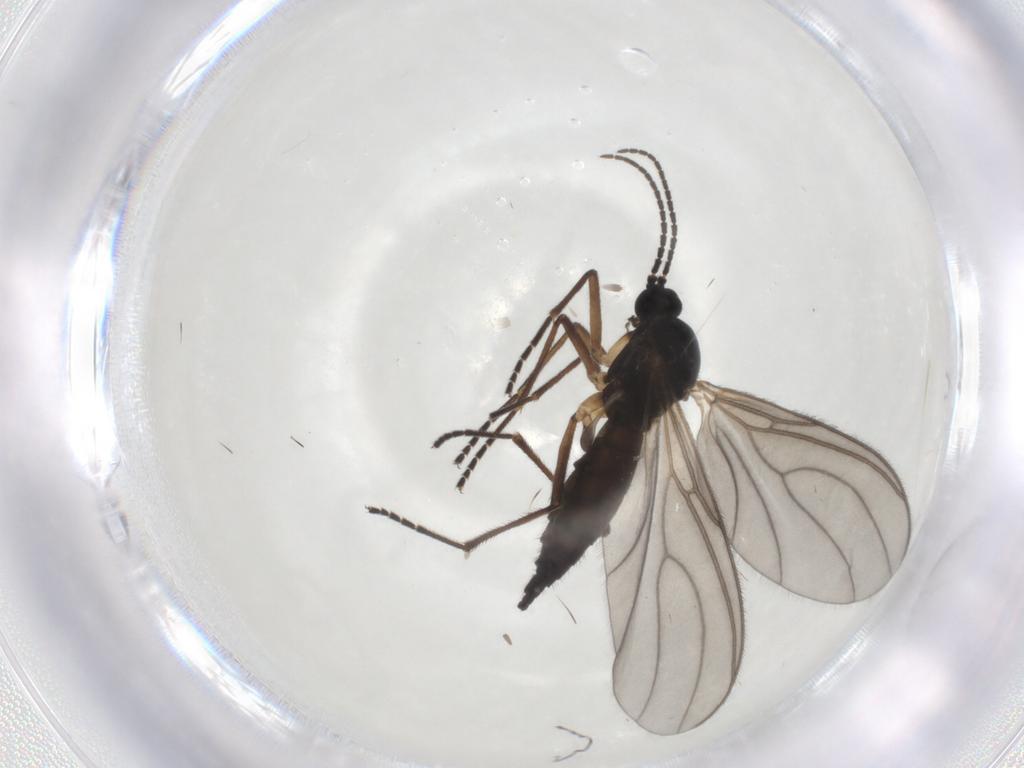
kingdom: Animalia
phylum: Arthropoda
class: Insecta
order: Diptera
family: Sciaridae
